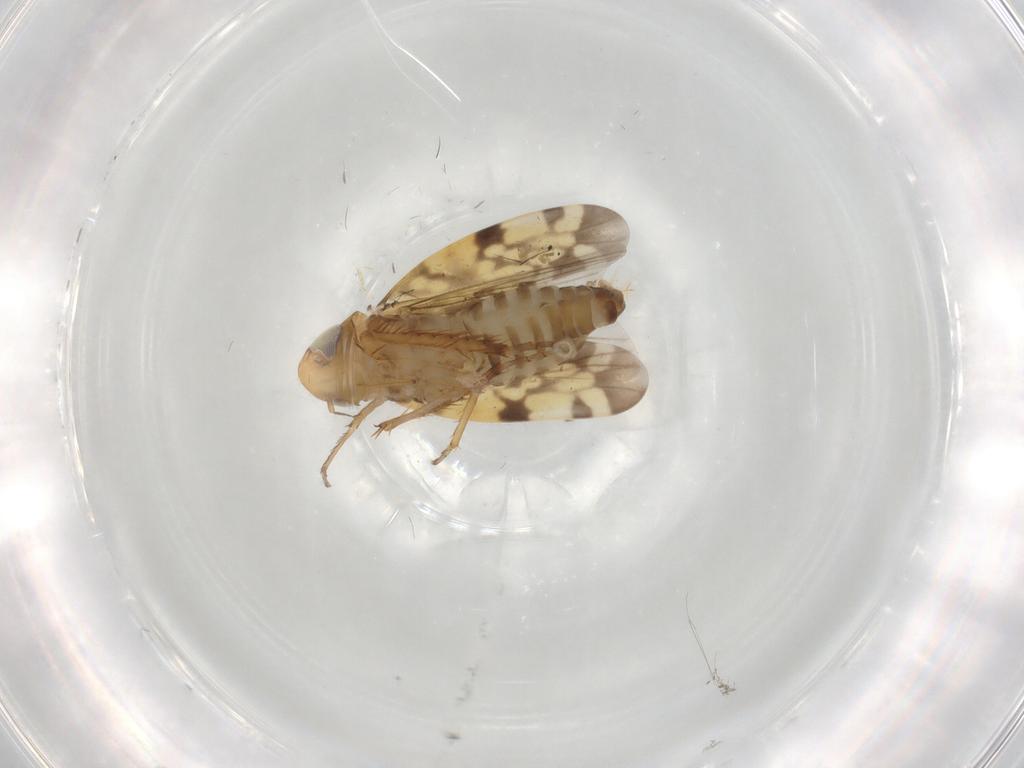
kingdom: Animalia
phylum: Arthropoda
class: Insecta
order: Hemiptera
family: Cicadellidae
